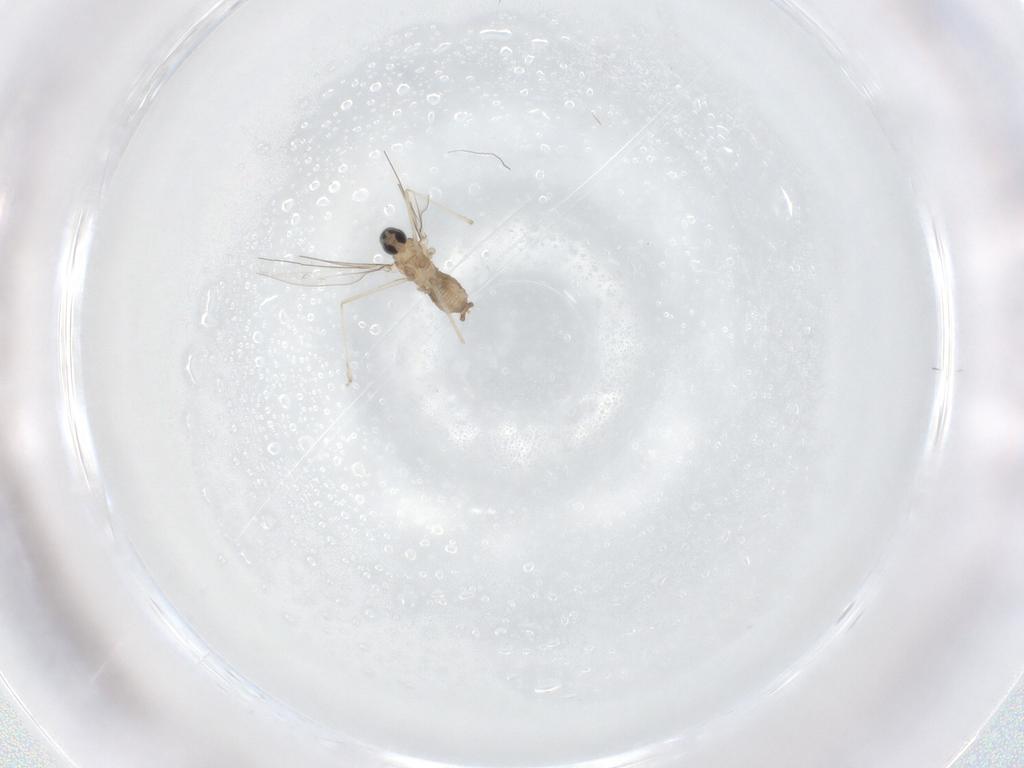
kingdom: Animalia
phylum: Arthropoda
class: Insecta
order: Diptera
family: Cecidomyiidae
